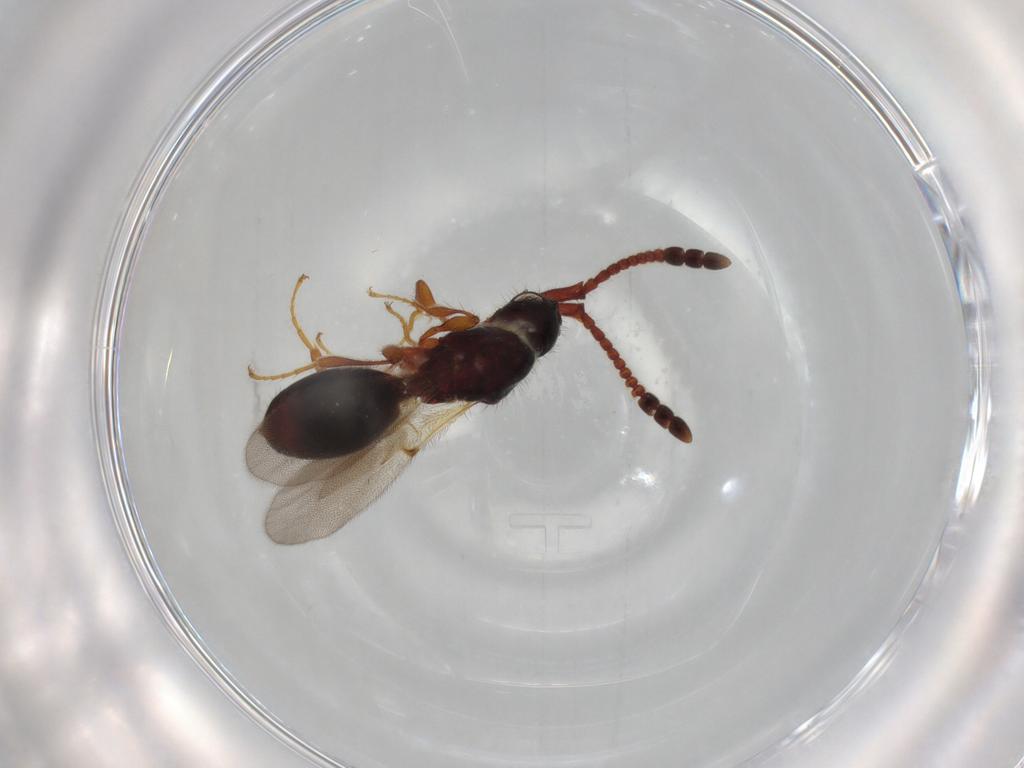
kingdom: Animalia
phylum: Arthropoda
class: Insecta
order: Hymenoptera
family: Diapriidae
